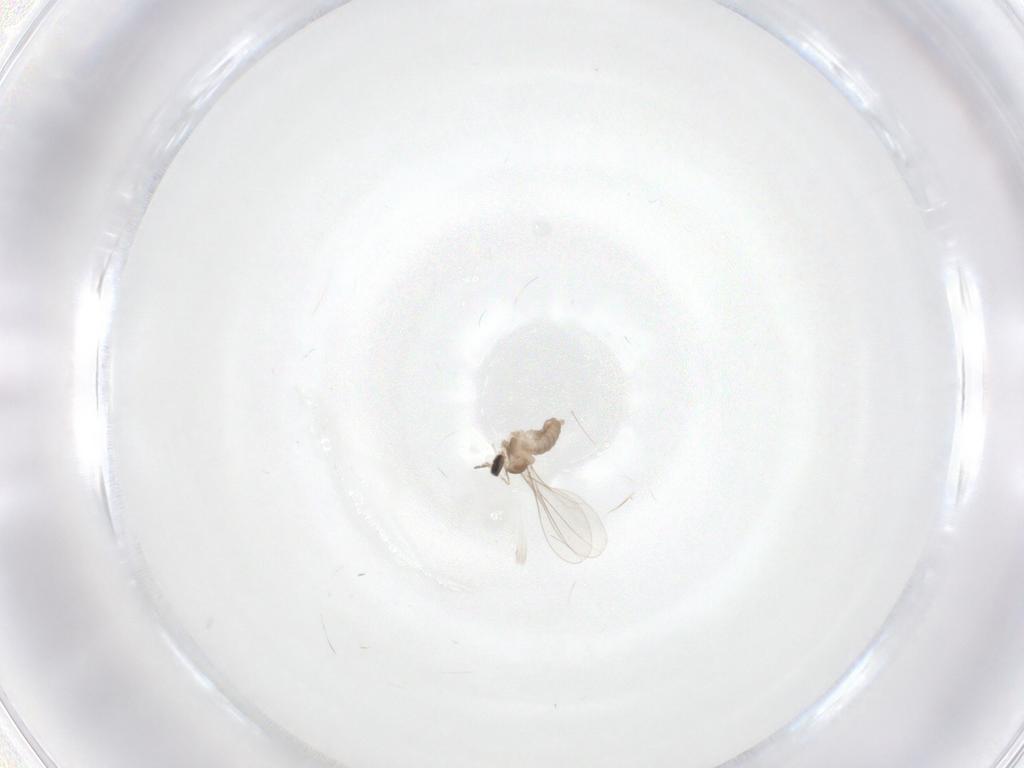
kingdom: Animalia
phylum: Arthropoda
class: Insecta
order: Diptera
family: Cecidomyiidae
